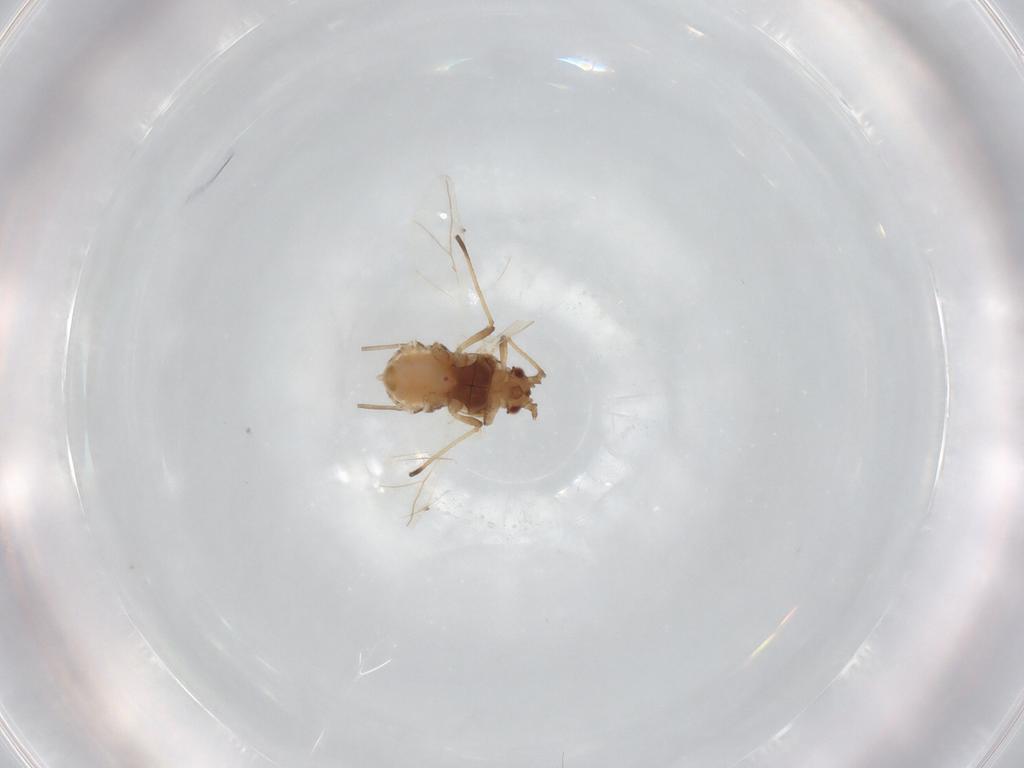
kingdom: Animalia
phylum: Arthropoda
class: Insecta
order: Hemiptera
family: Aphididae
